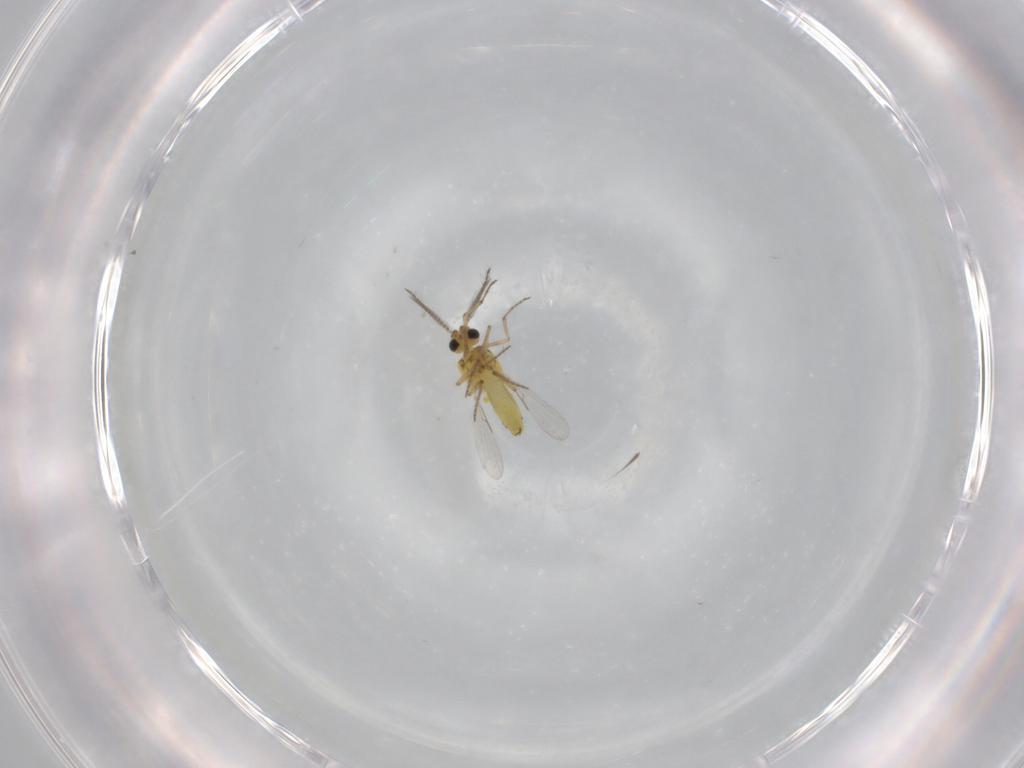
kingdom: Animalia
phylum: Arthropoda
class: Insecta
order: Diptera
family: Ceratopogonidae
